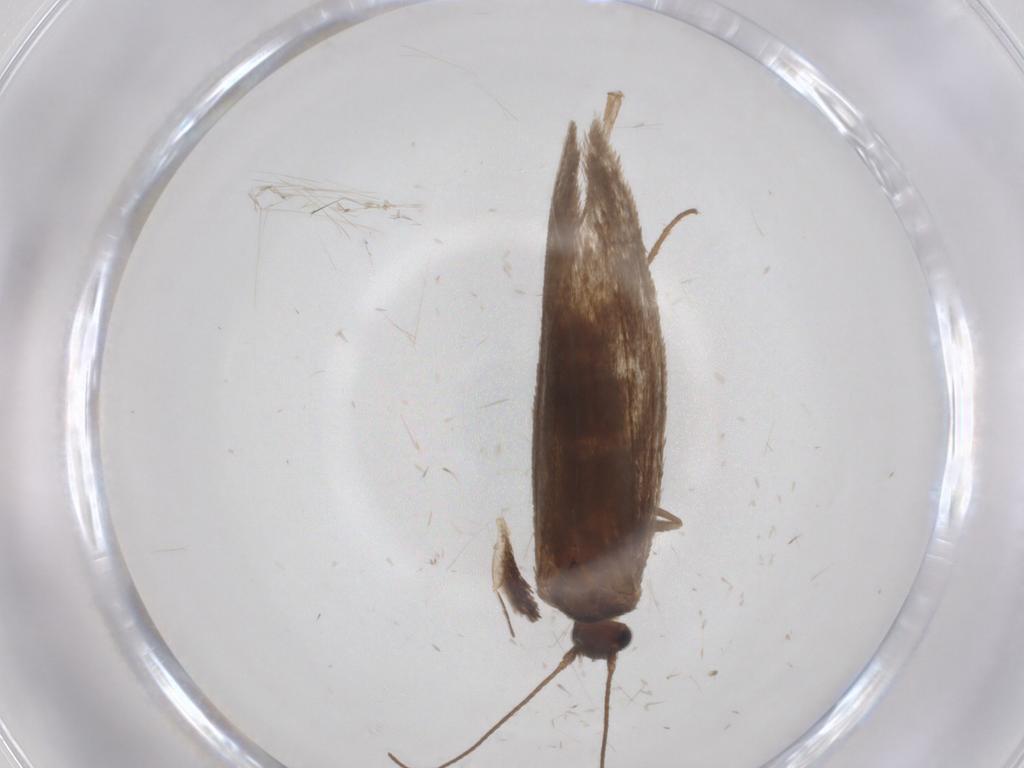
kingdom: Animalia
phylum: Arthropoda
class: Insecta
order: Lepidoptera
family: Limacodidae
